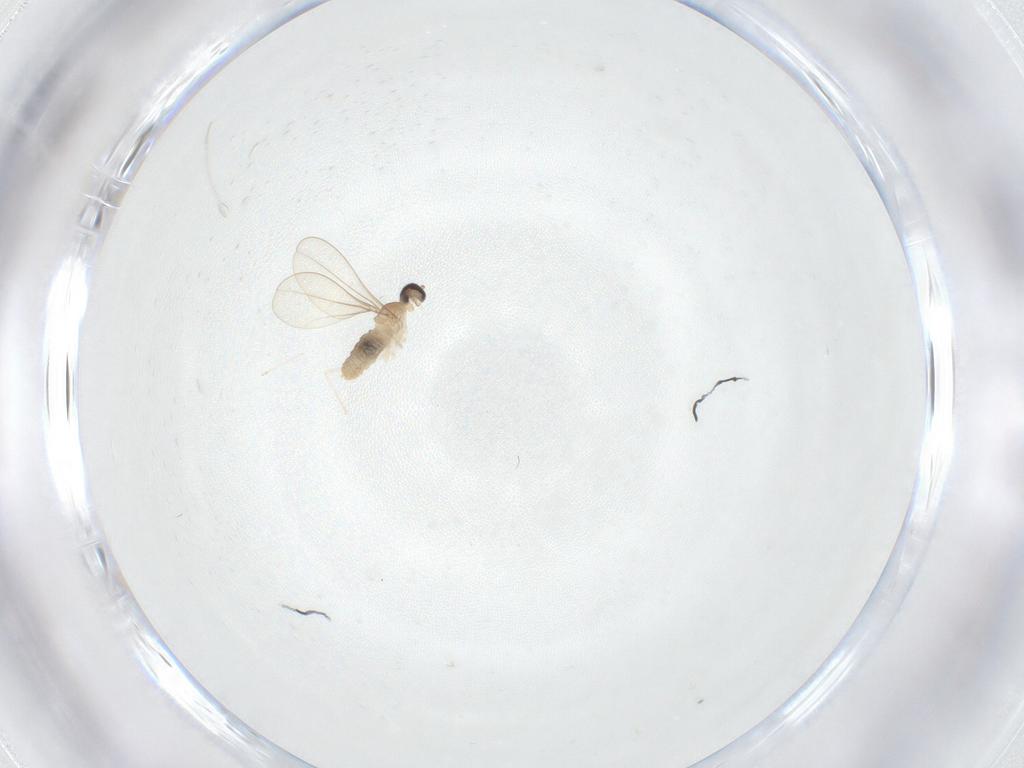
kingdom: Animalia
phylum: Arthropoda
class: Insecta
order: Diptera
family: Cecidomyiidae
